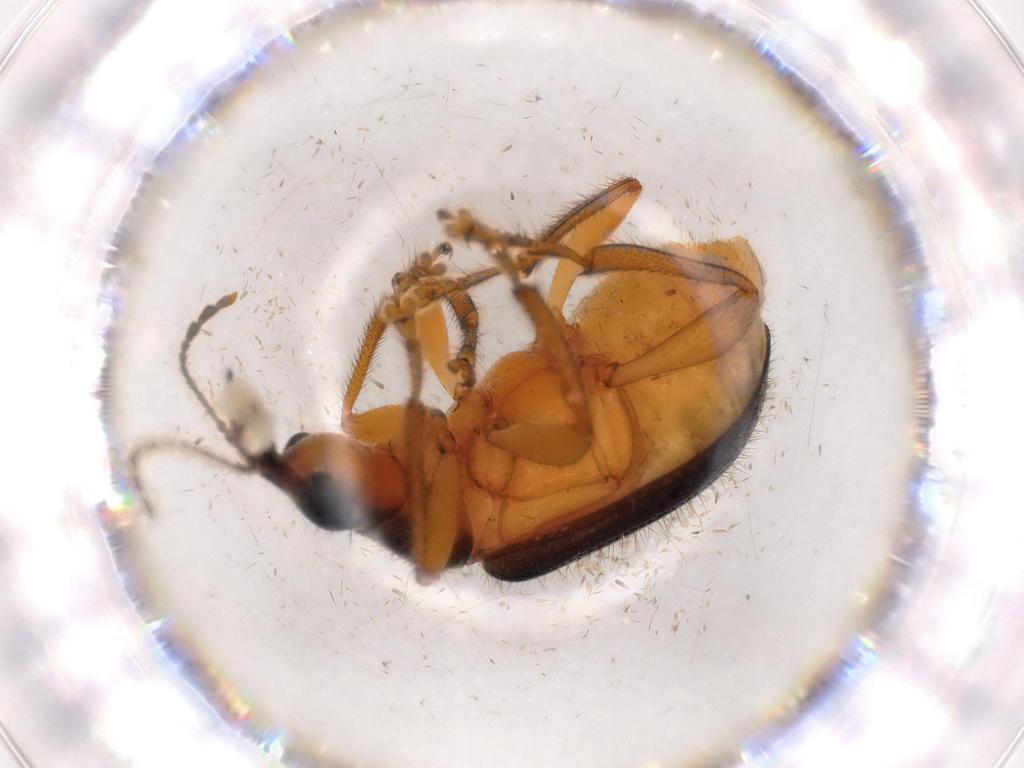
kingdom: Animalia
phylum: Arthropoda
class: Insecta
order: Coleoptera
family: Attelabidae
